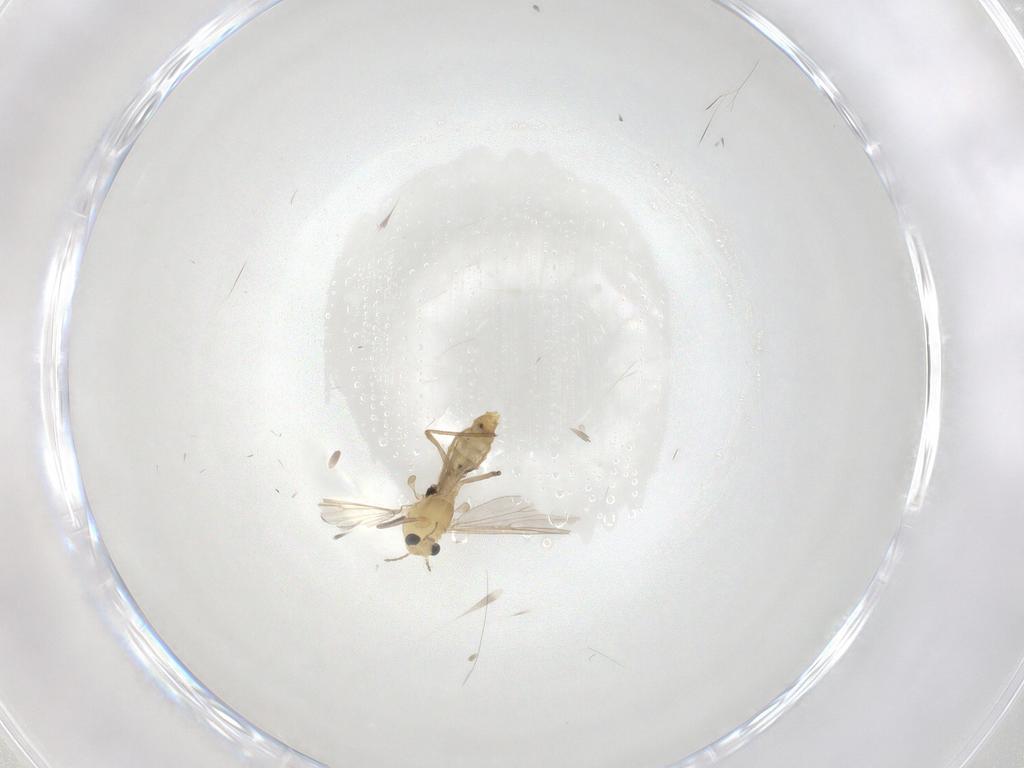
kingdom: Animalia
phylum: Arthropoda
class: Insecta
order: Diptera
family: Chironomidae
